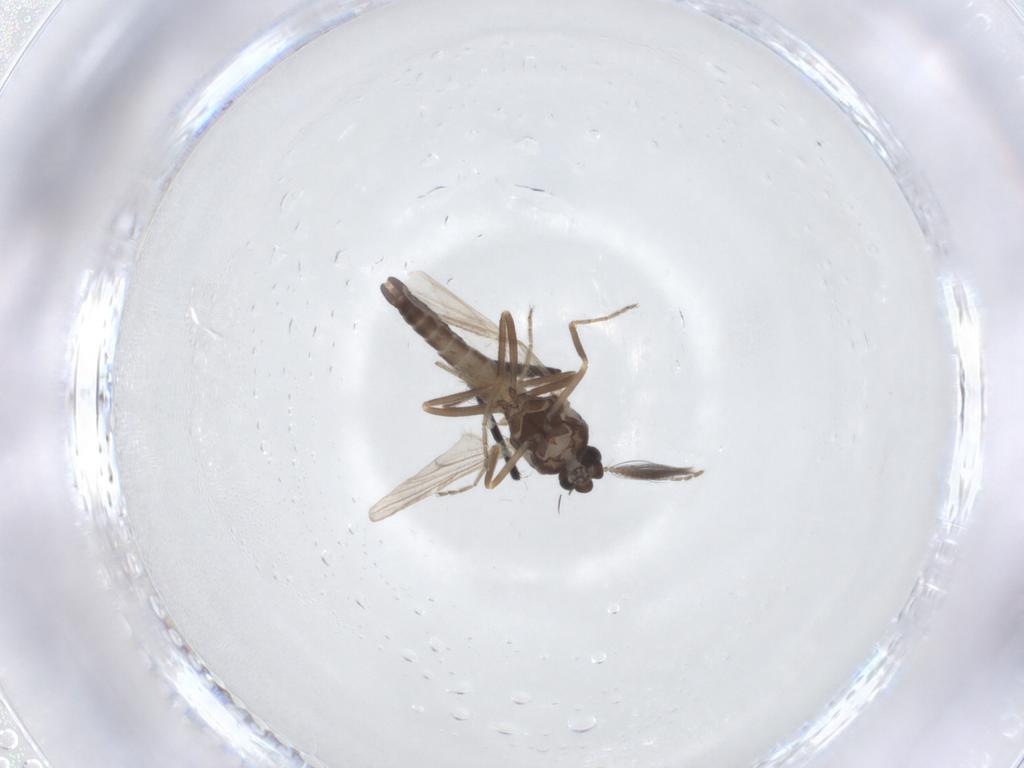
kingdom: Animalia
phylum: Arthropoda
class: Insecta
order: Diptera
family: Ceratopogonidae
